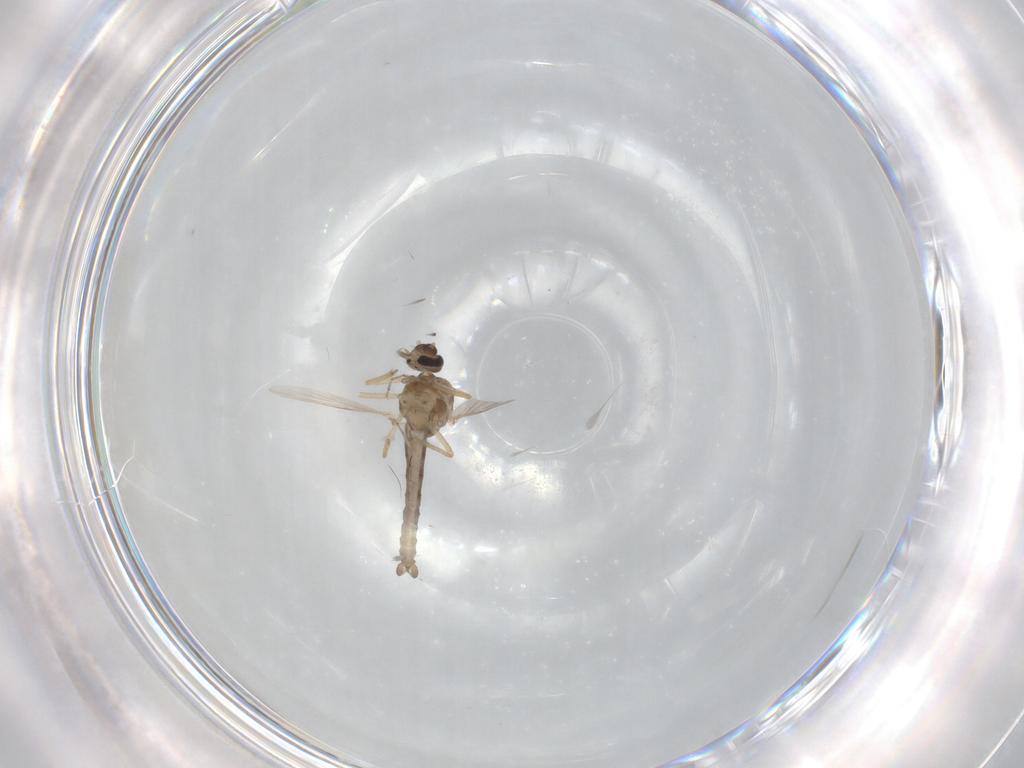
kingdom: Animalia
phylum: Arthropoda
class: Insecta
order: Diptera
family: Ceratopogonidae
